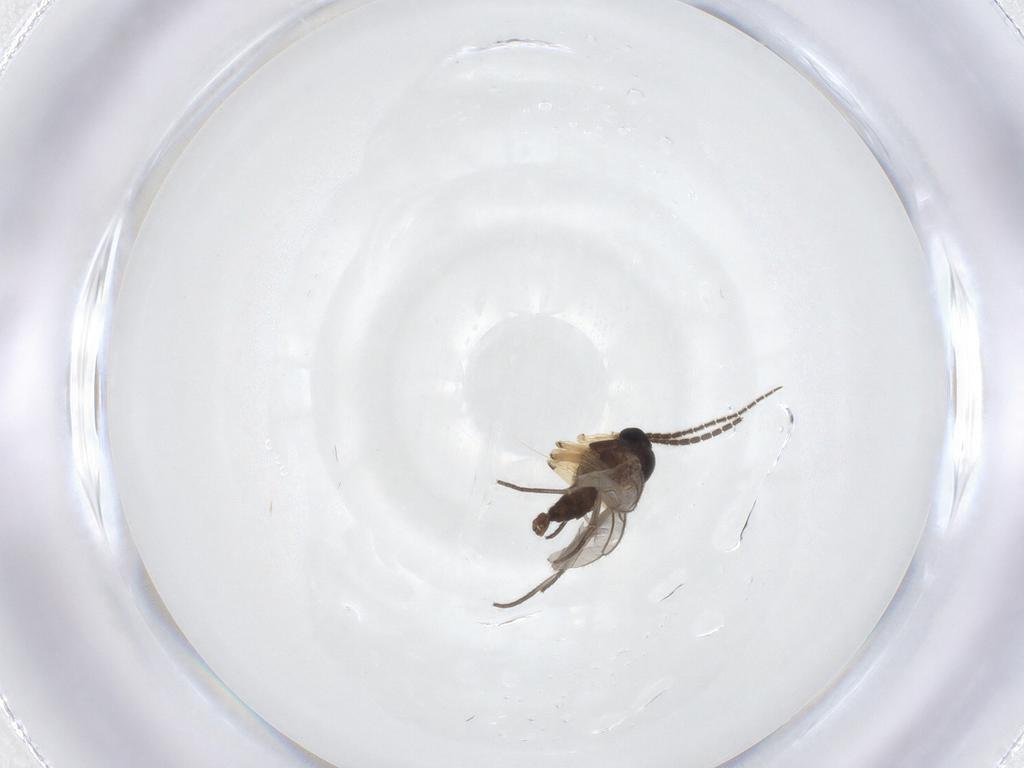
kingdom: Animalia
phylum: Arthropoda
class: Insecta
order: Diptera
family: Sciaridae
